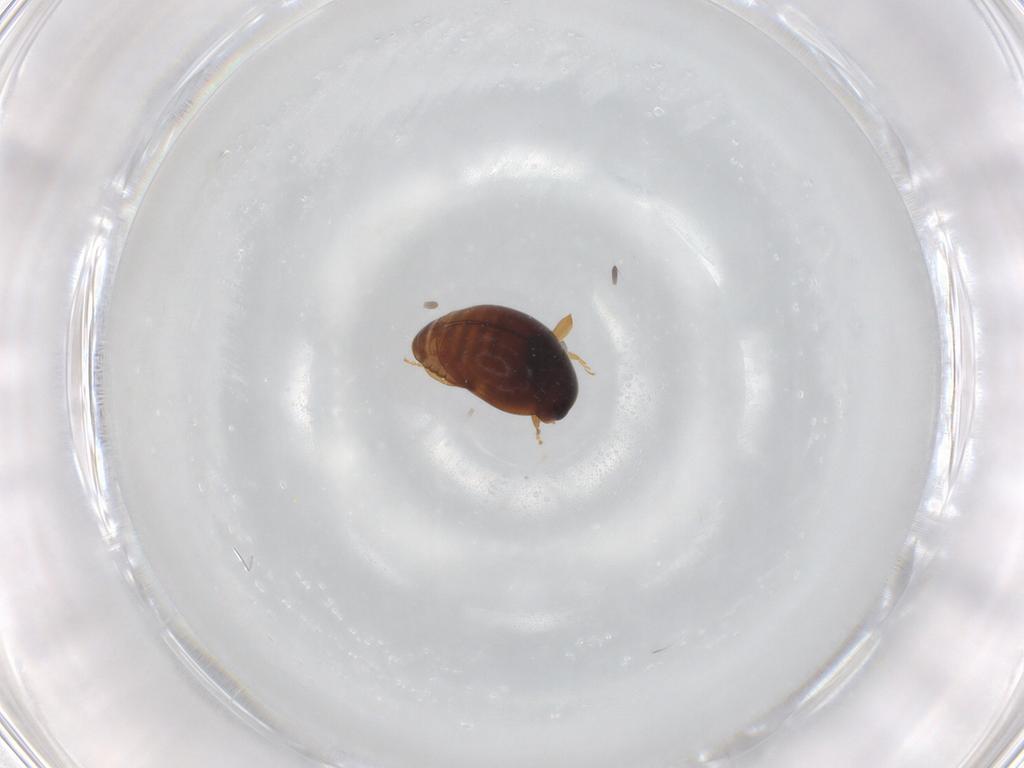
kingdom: Animalia
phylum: Arthropoda
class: Insecta
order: Coleoptera
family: Coccinellidae
